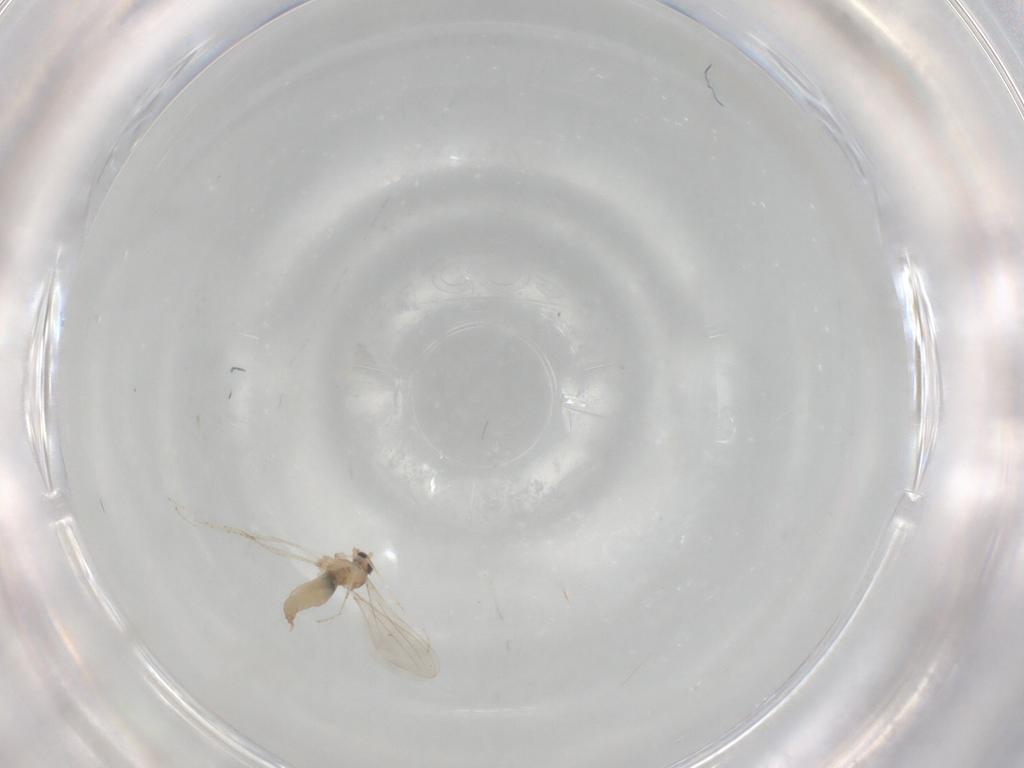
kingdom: Animalia
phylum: Arthropoda
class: Insecta
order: Diptera
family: Cecidomyiidae
